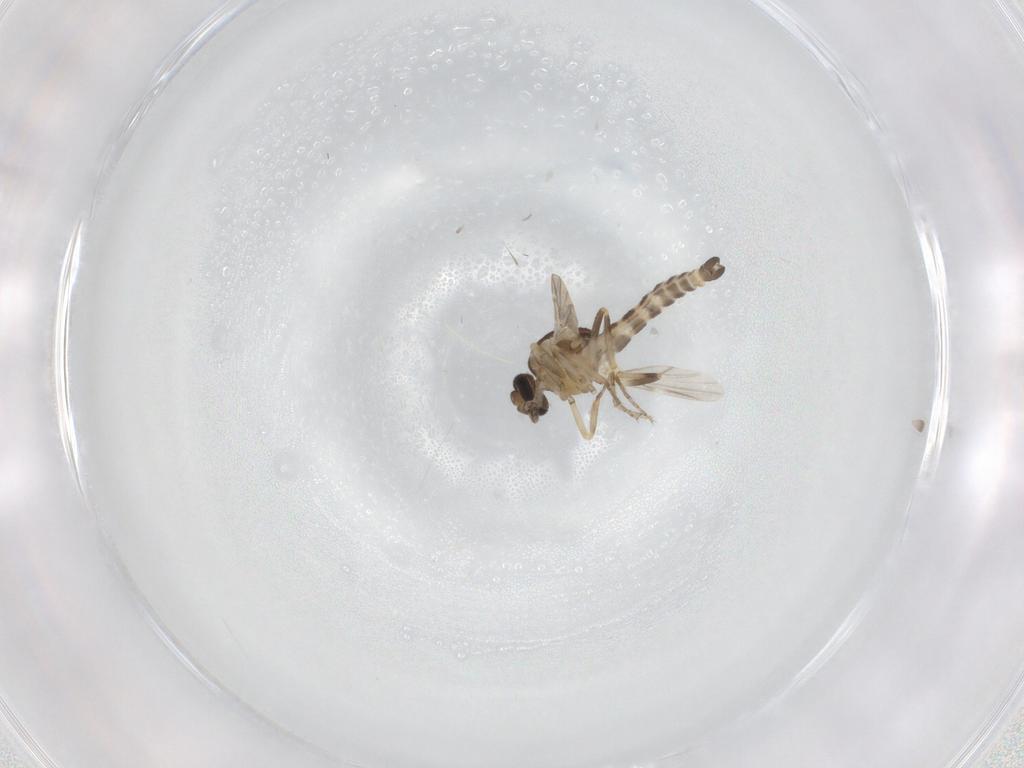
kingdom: Animalia
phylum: Arthropoda
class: Insecta
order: Diptera
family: Ceratopogonidae
